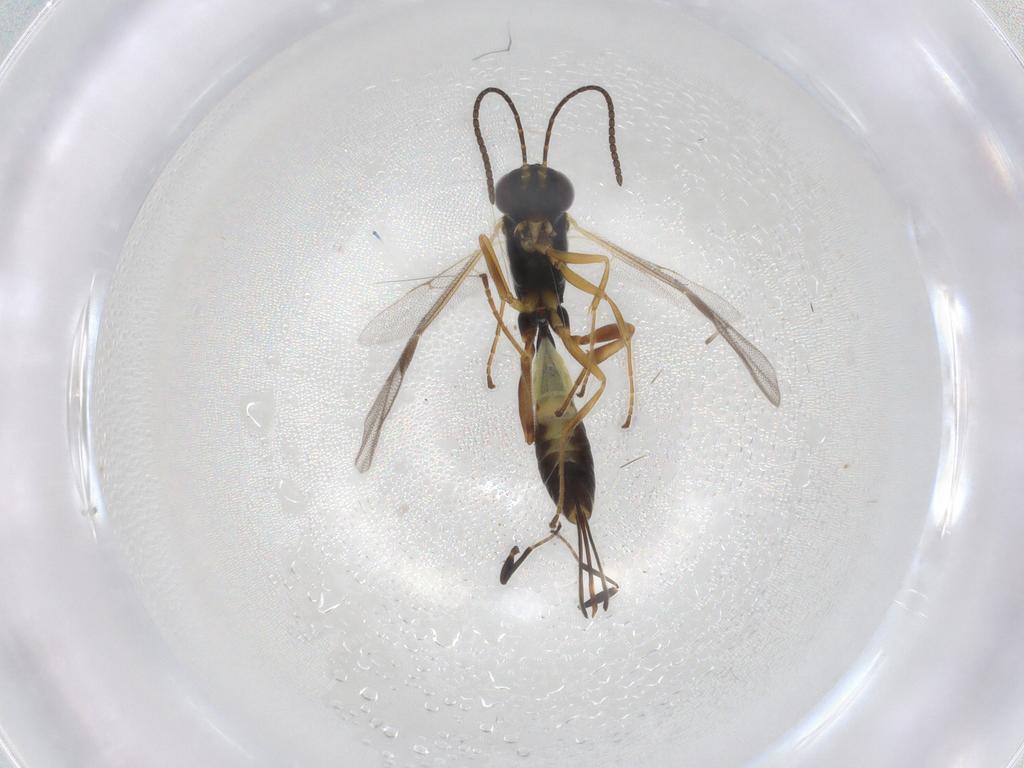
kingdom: Animalia
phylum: Arthropoda
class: Insecta
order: Hymenoptera
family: Ichneumonidae
